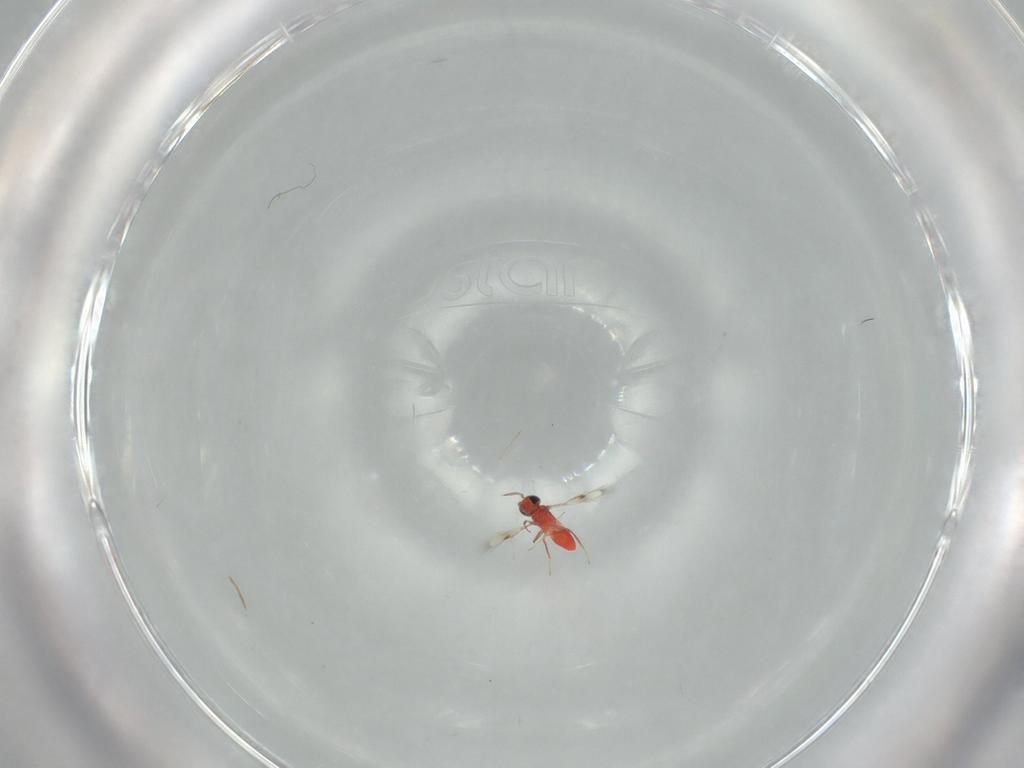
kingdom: Animalia
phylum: Arthropoda
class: Insecta
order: Hymenoptera
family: Trichogrammatidae
